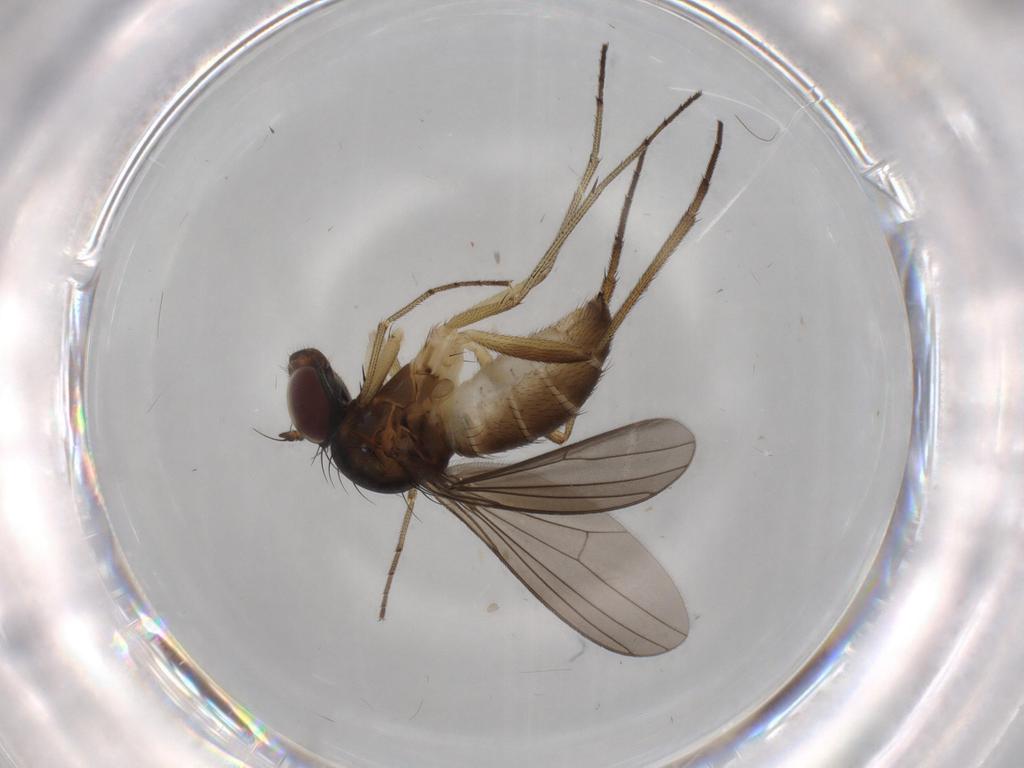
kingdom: Animalia
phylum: Arthropoda
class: Insecta
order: Diptera
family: Dolichopodidae
